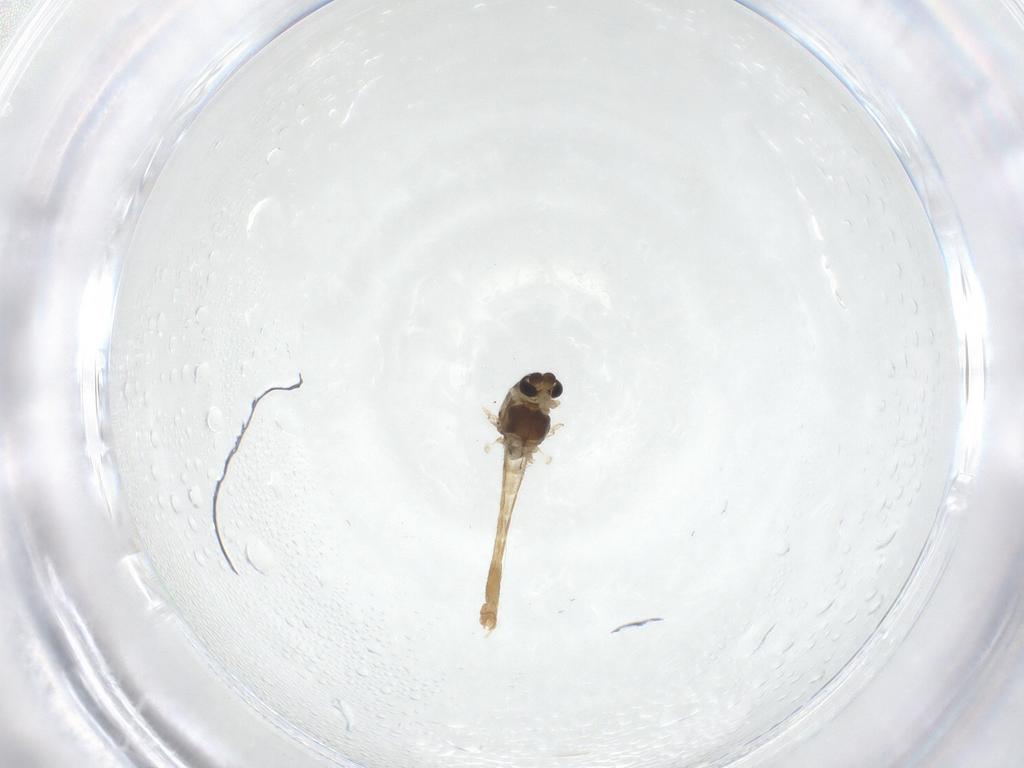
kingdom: Animalia
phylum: Arthropoda
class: Insecta
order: Diptera
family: Chironomidae
